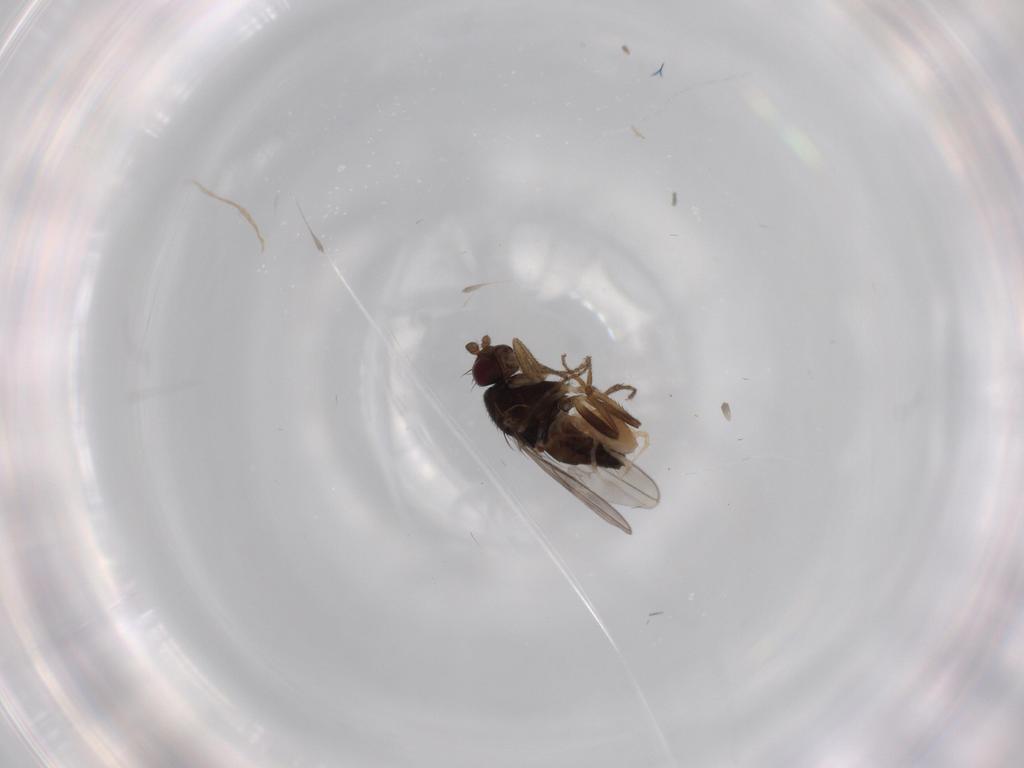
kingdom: Animalia
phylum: Arthropoda
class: Insecta
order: Diptera
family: Sphaeroceridae
